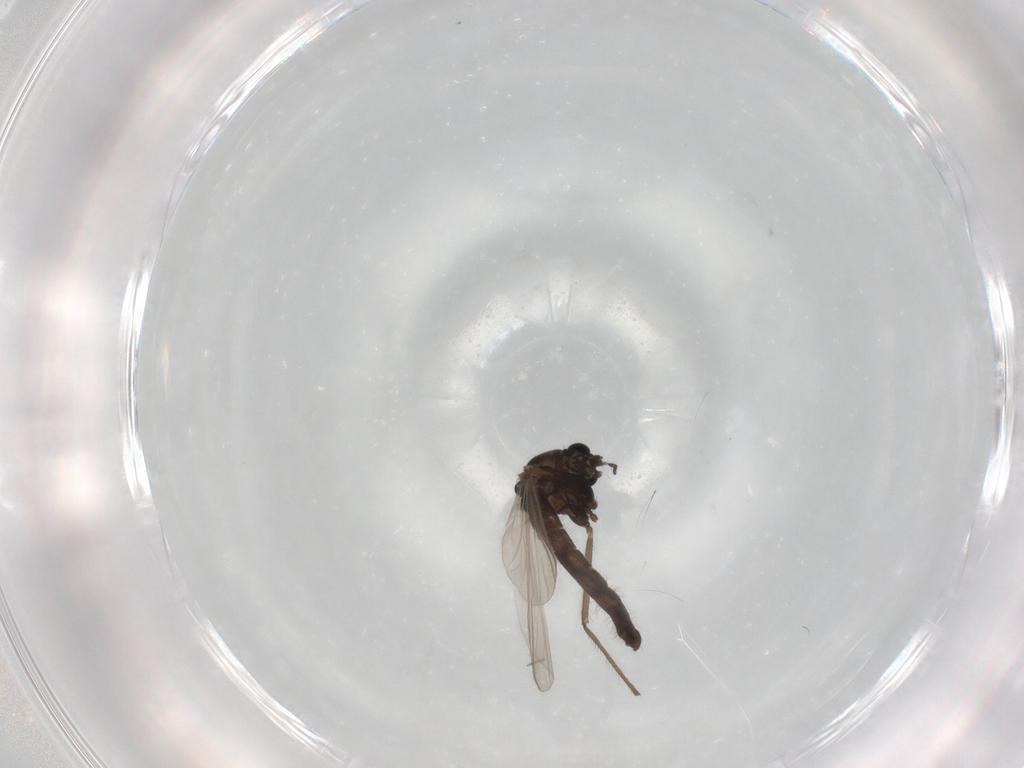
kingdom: Animalia
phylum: Arthropoda
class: Insecta
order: Diptera
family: Chironomidae
